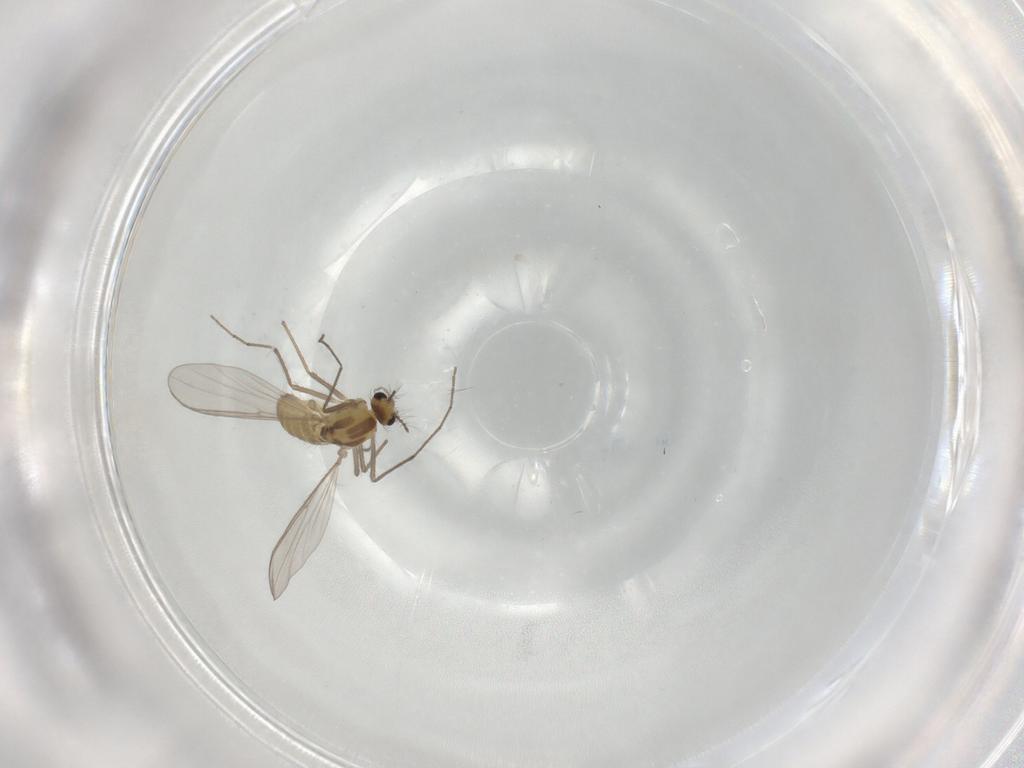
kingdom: Animalia
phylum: Arthropoda
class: Insecta
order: Diptera
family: Chironomidae
